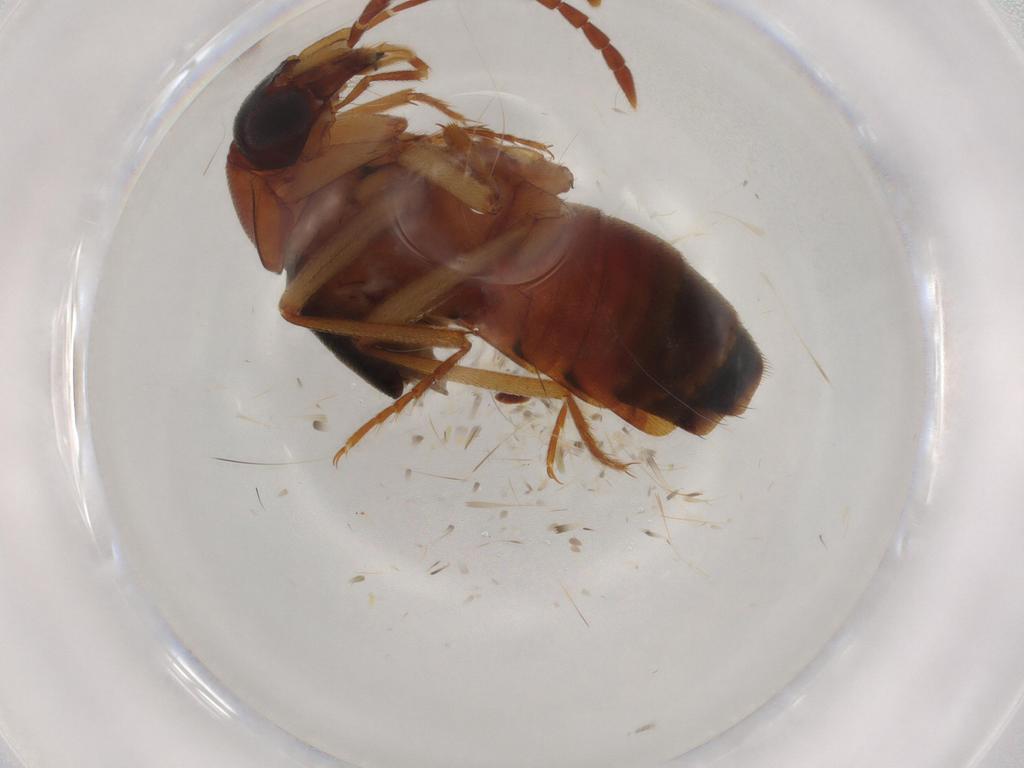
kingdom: Animalia
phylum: Arthropoda
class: Insecta
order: Coleoptera
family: Staphylinidae
